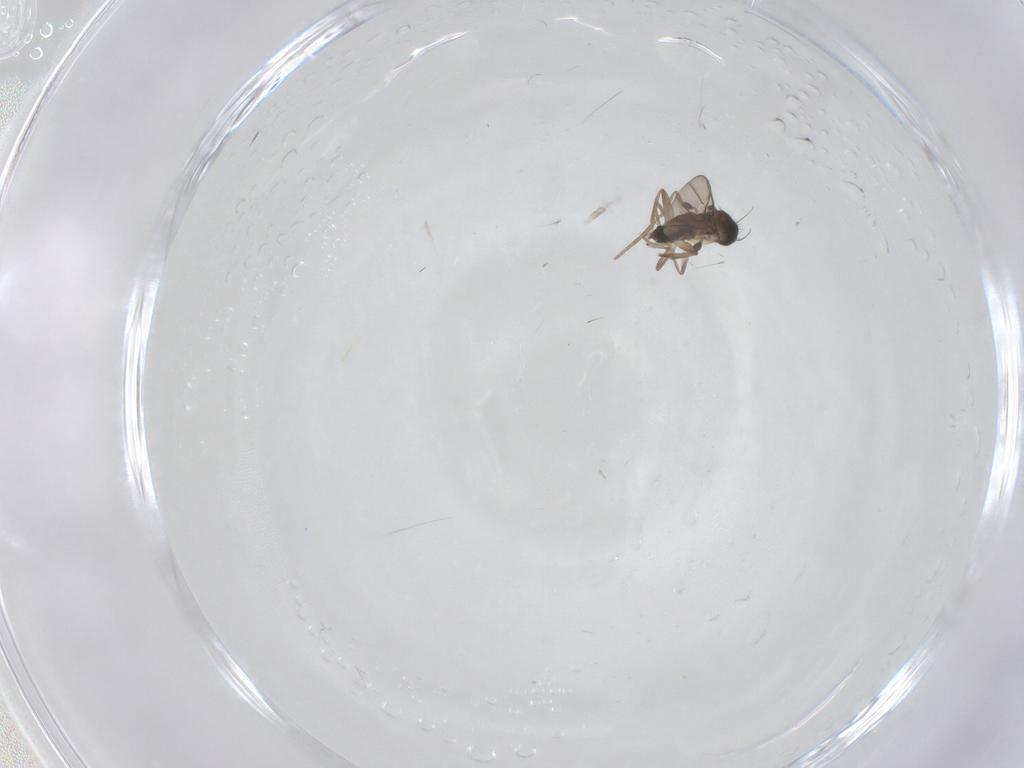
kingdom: Animalia
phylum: Arthropoda
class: Insecta
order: Diptera
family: Phoridae
